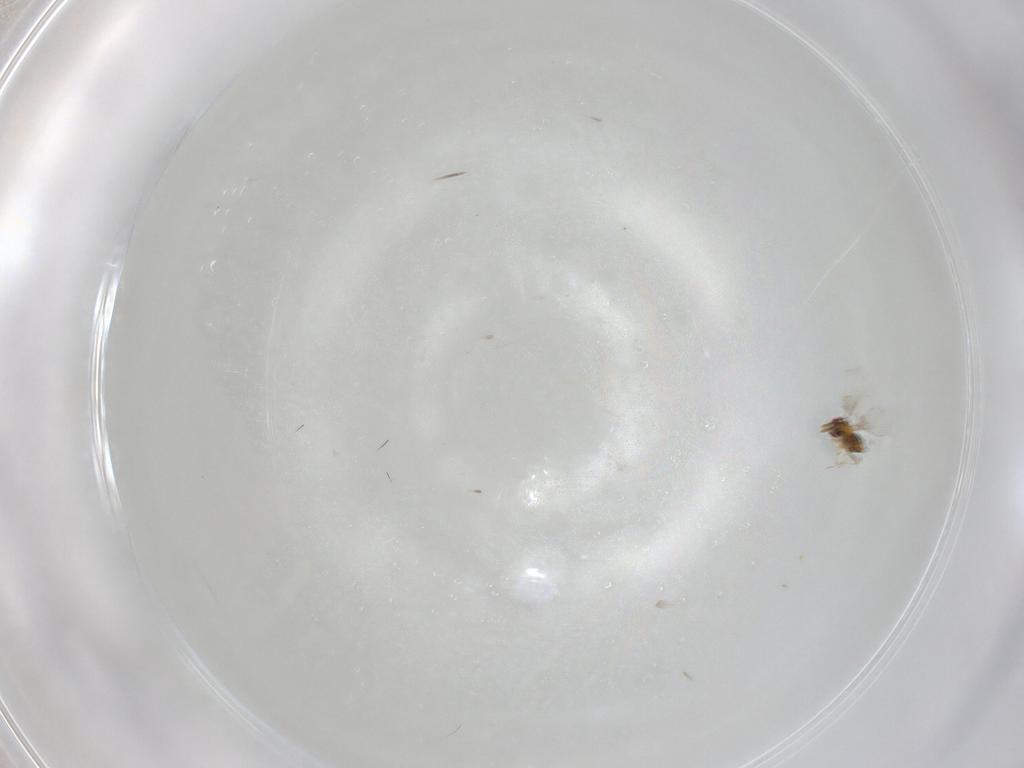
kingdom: Animalia
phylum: Arthropoda
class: Insecta
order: Hymenoptera
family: Trichogrammatidae
